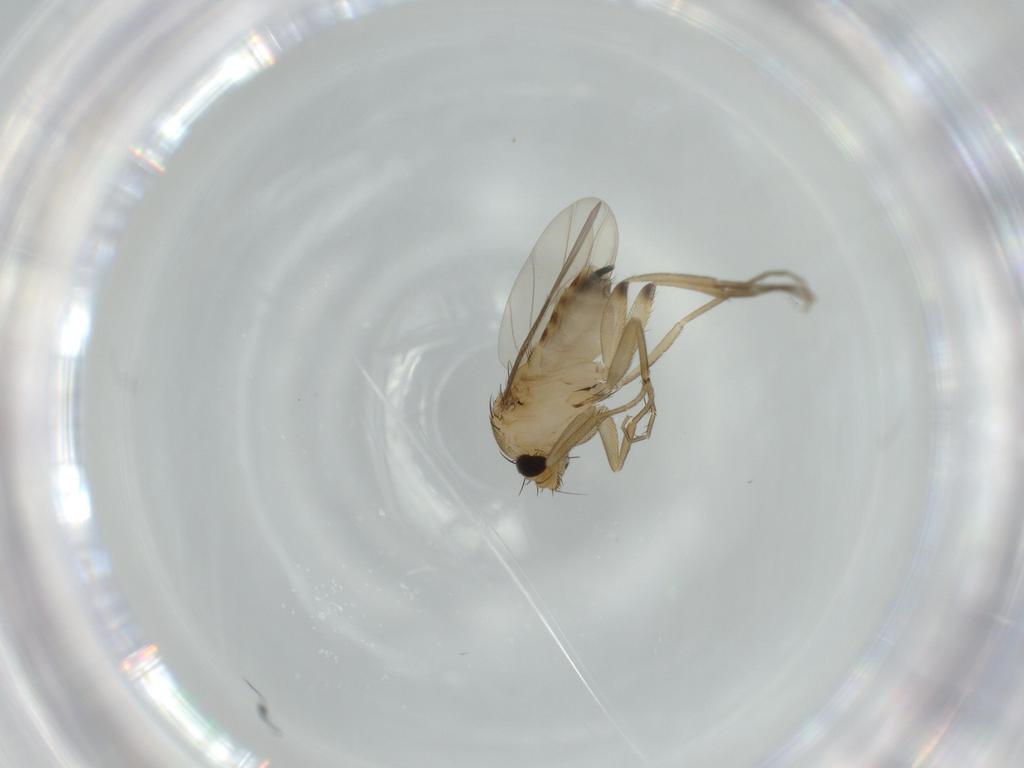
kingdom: Animalia
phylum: Arthropoda
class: Insecta
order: Diptera
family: Phoridae
